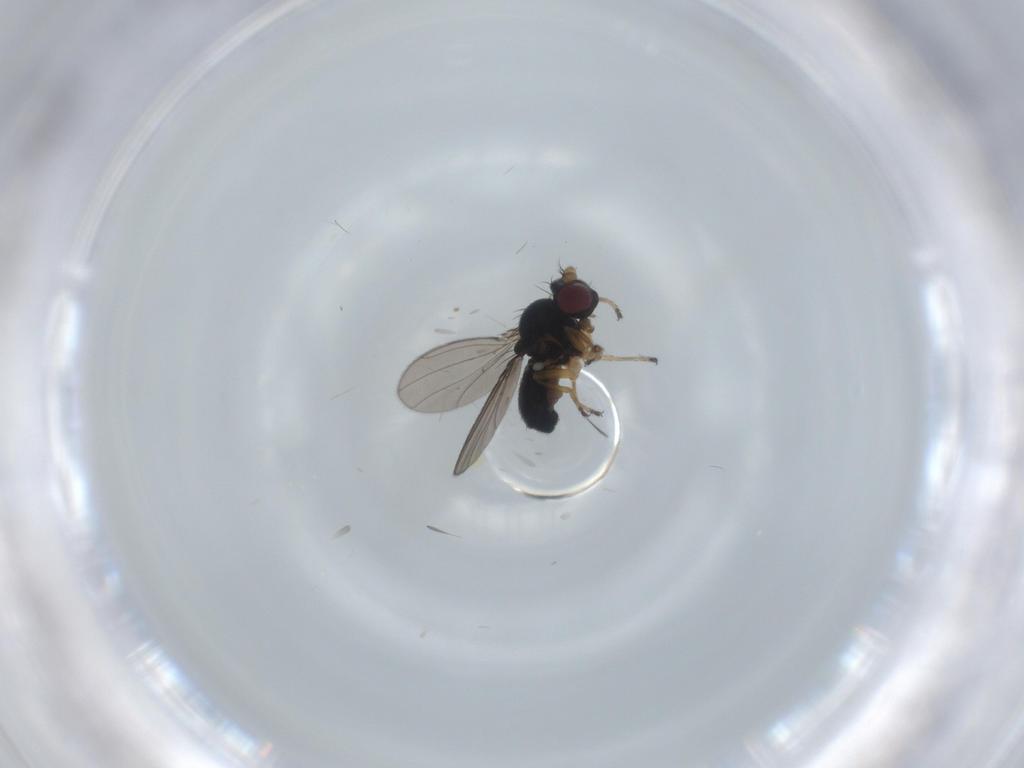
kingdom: Animalia
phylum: Arthropoda
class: Insecta
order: Diptera
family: Ephydridae
